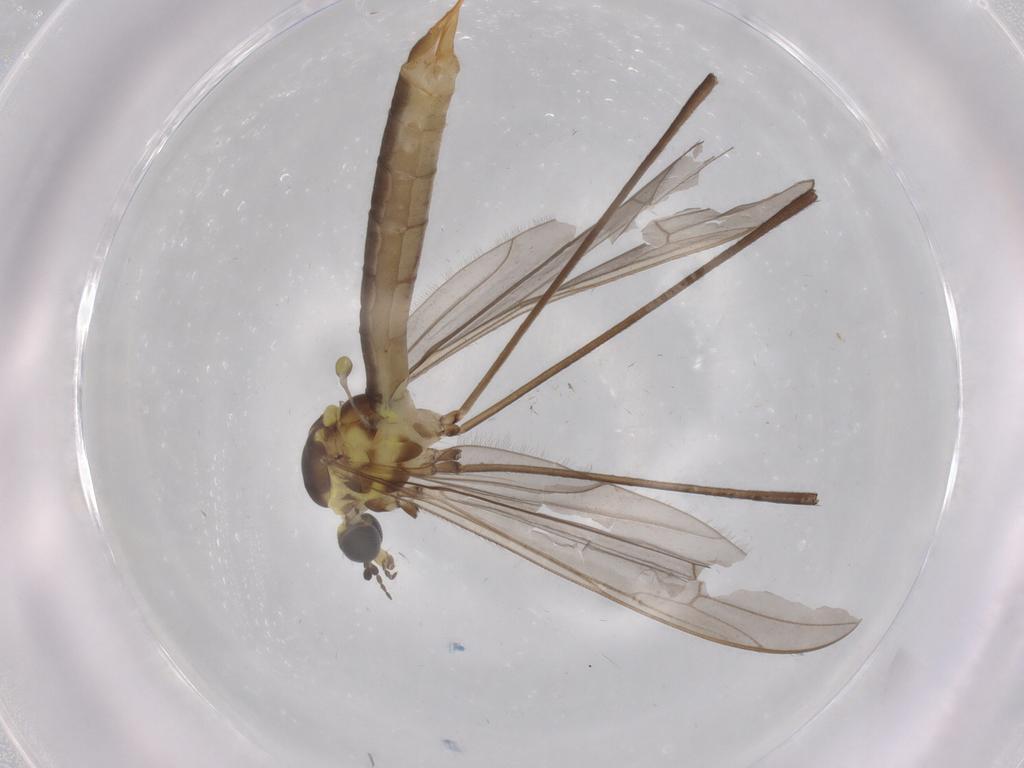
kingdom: Animalia
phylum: Arthropoda
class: Insecta
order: Diptera
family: Limoniidae
